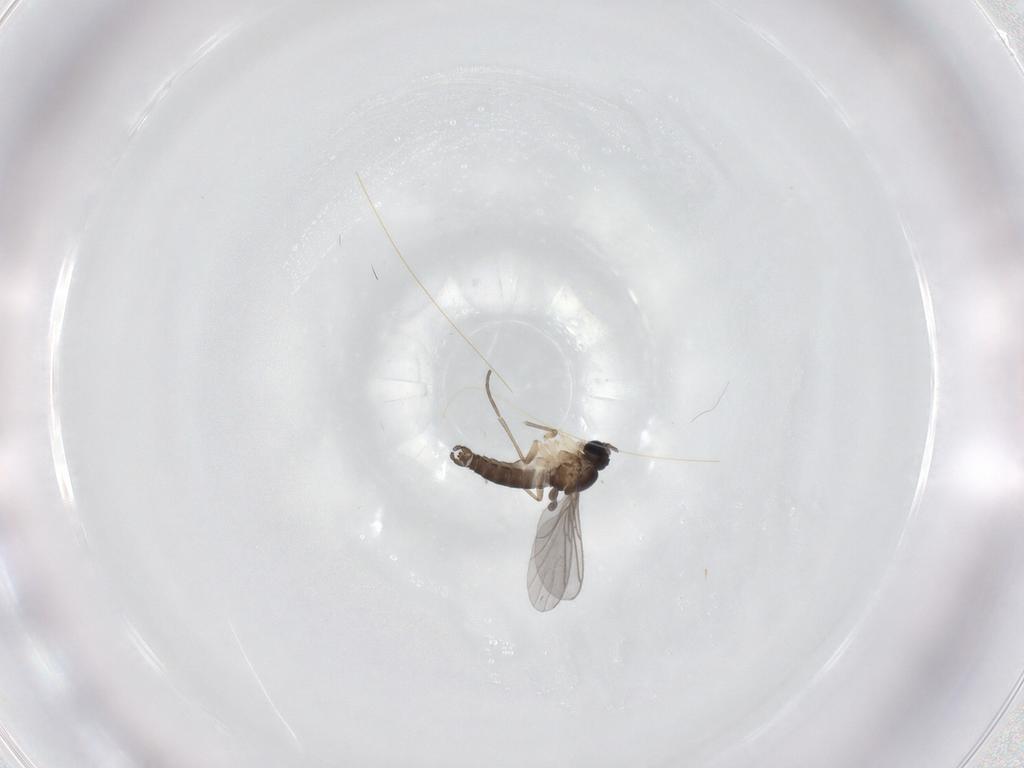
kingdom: Animalia
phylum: Arthropoda
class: Insecta
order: Diptera
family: Sciaridae
